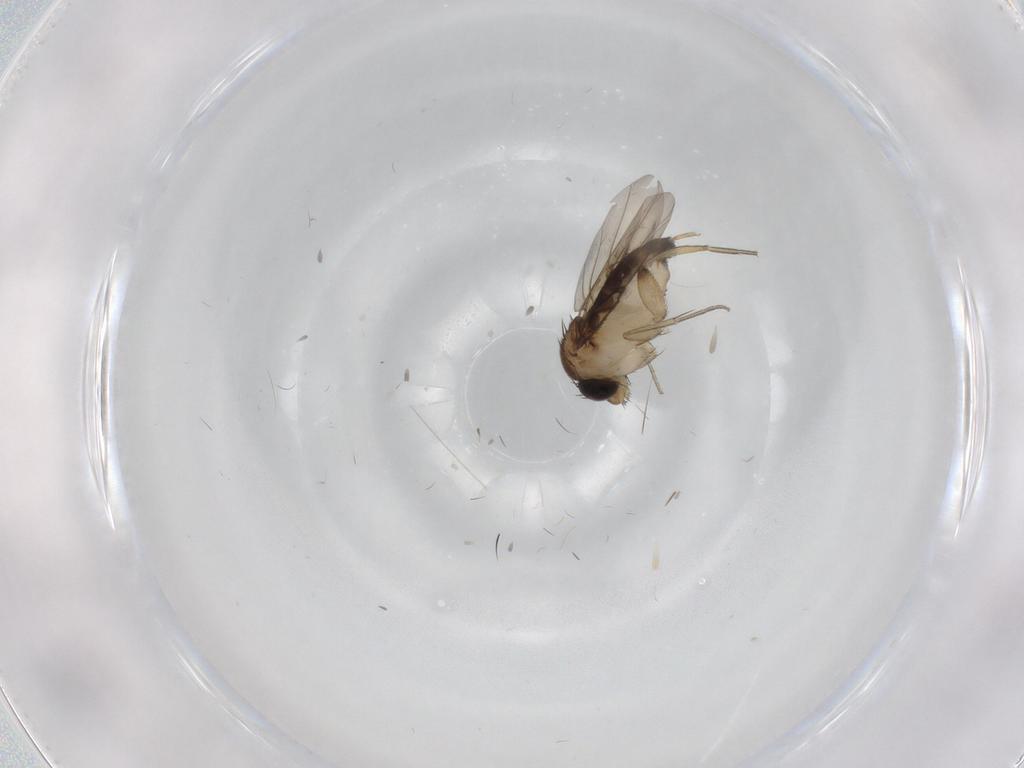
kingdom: Animalia
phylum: Arthropoda
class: Insecta
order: Diptera
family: Phoridae
